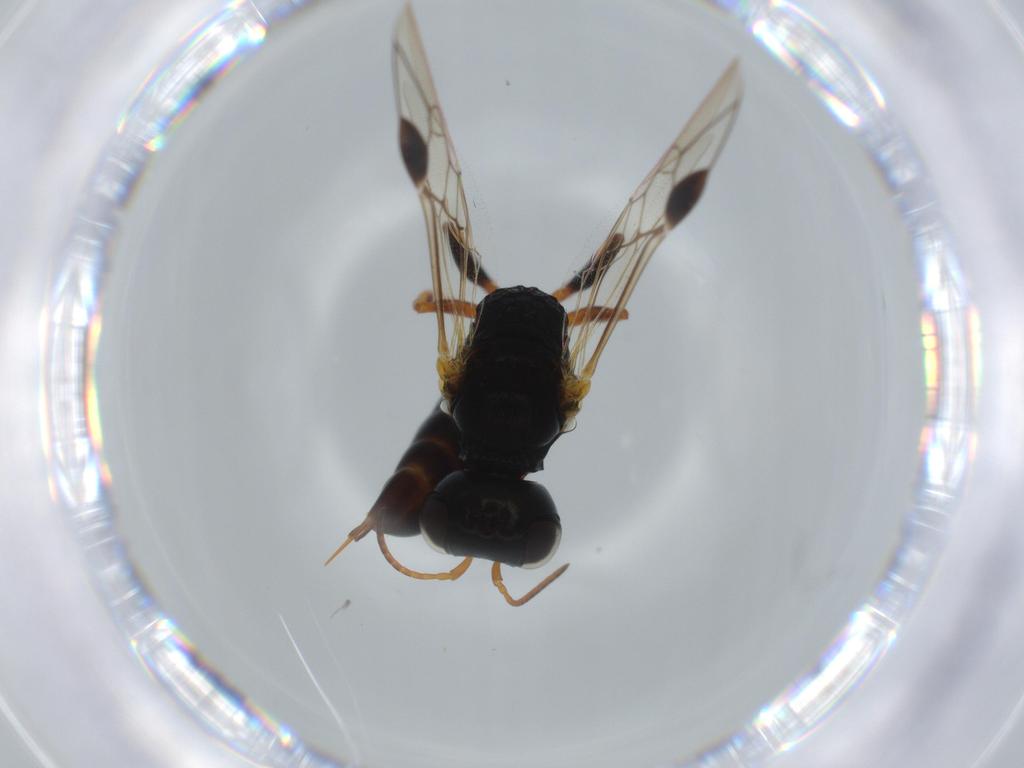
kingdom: Animalia
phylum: Arthropoda
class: Insecta
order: Hymenoptera
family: Crabronidae
